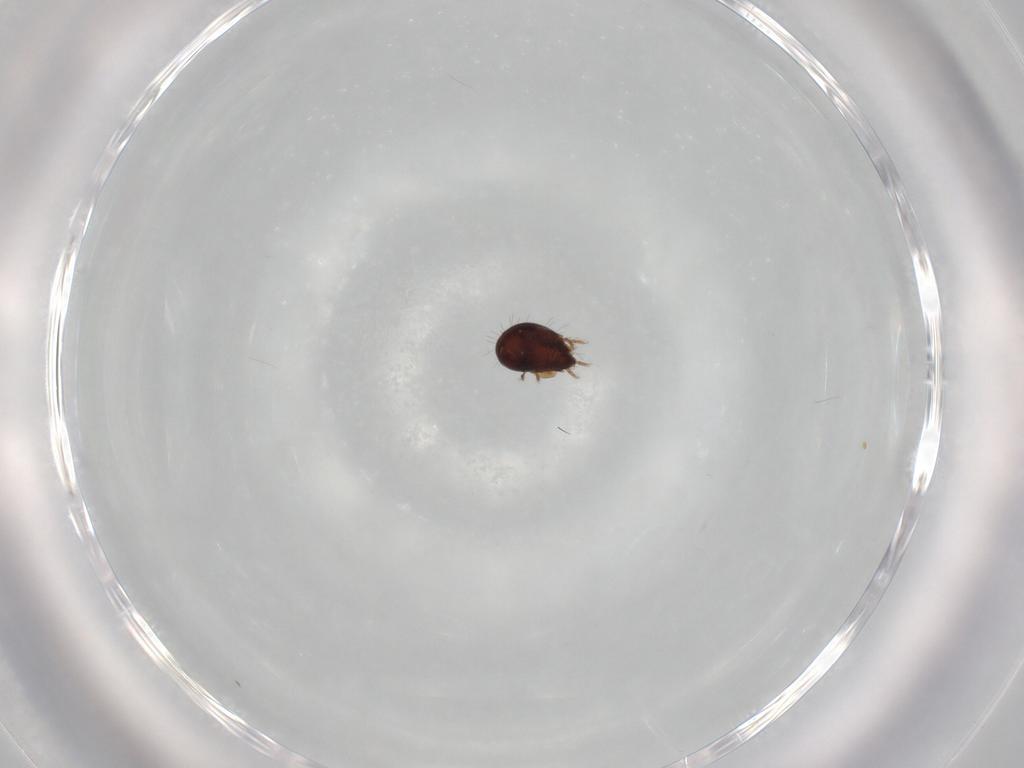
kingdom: Animalia
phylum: Arthropoda
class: Arachnida
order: Sarcoptiformes
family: Humerobatidae
